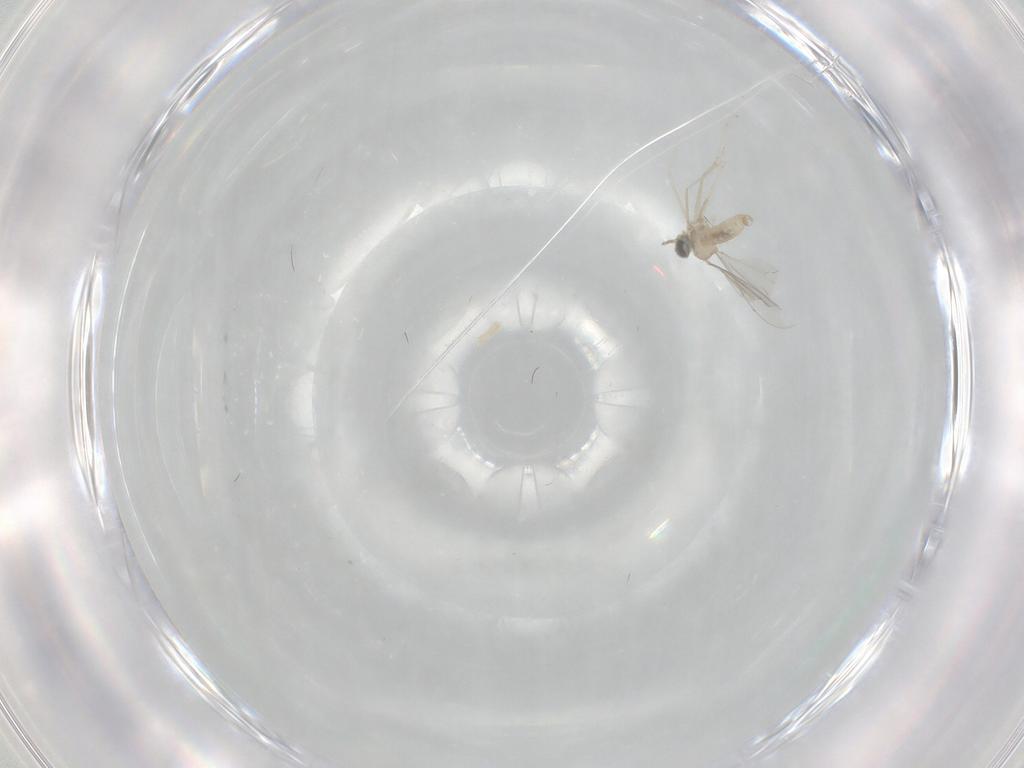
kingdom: Animalia
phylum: Arthropoda
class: Insecta
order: Diptera
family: Cecidomyiidae
